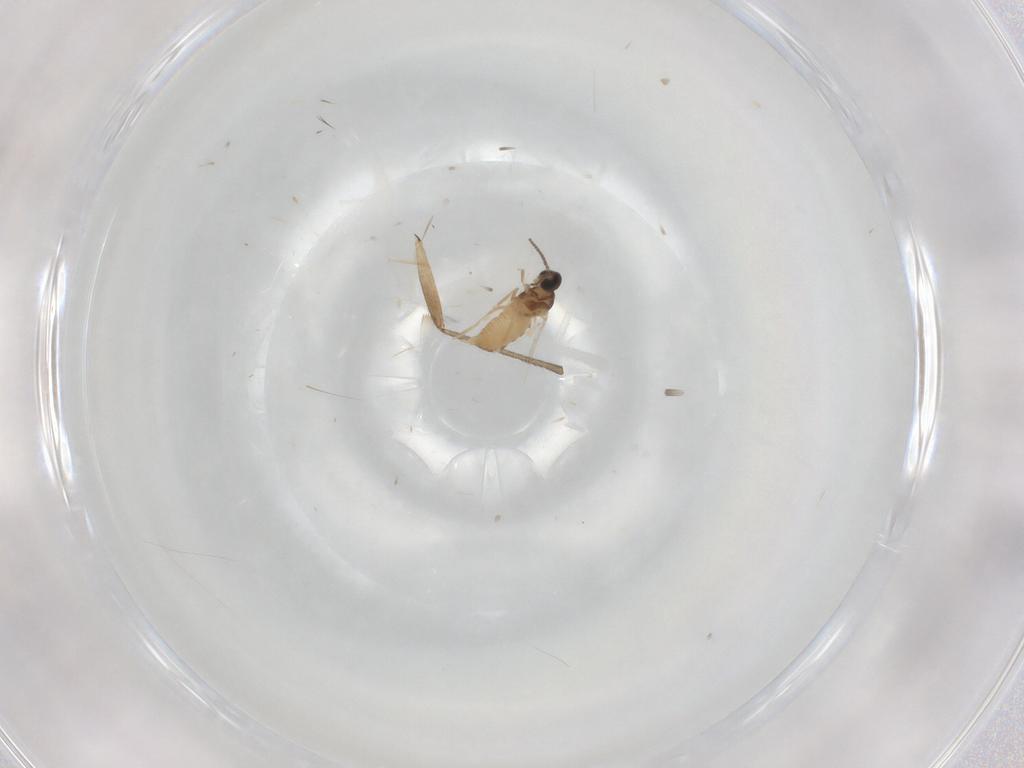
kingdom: Animalia
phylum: Arthropoda
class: Insecta
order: Diptera
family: Cecidomyiidae
